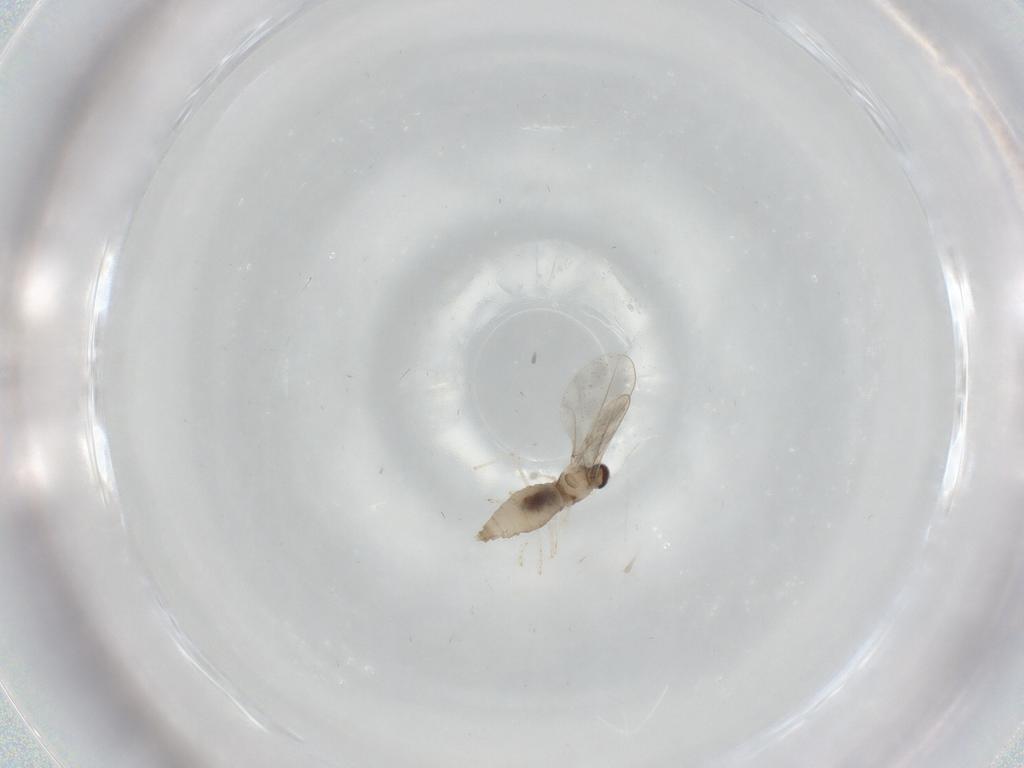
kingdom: Animalia
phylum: Arthropoda
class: Insecta
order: Diptera
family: Cecidomyiidae
